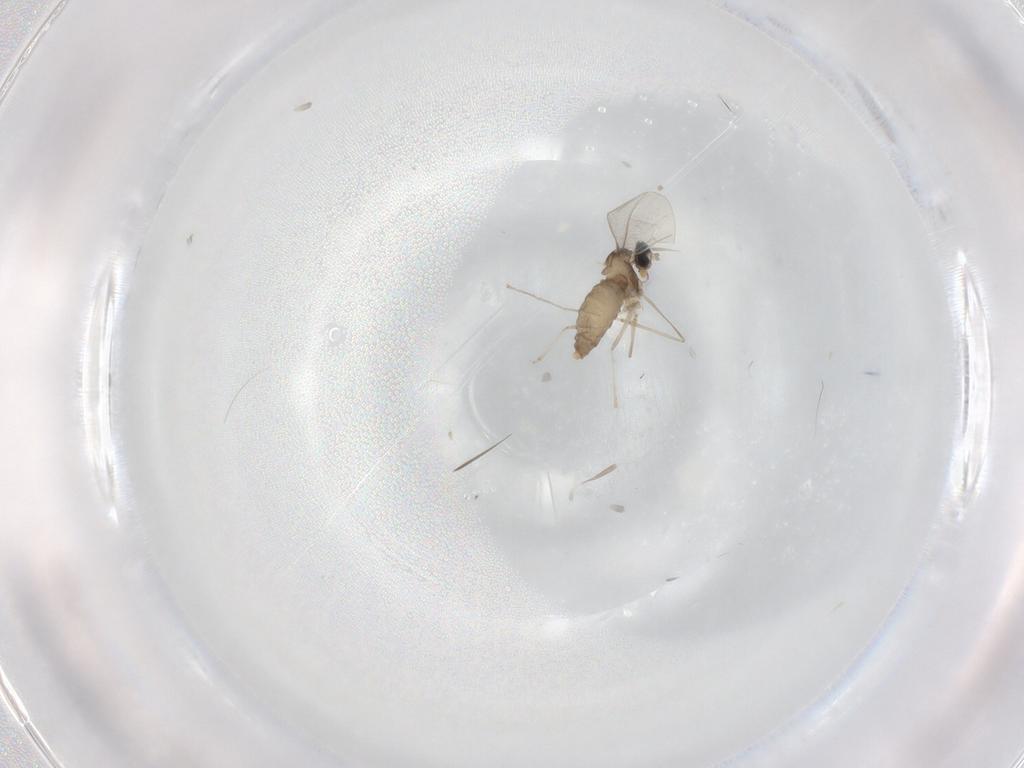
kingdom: Animalia
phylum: Arthropoda
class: Insecta
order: Diptera
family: Cecidomyiidae
